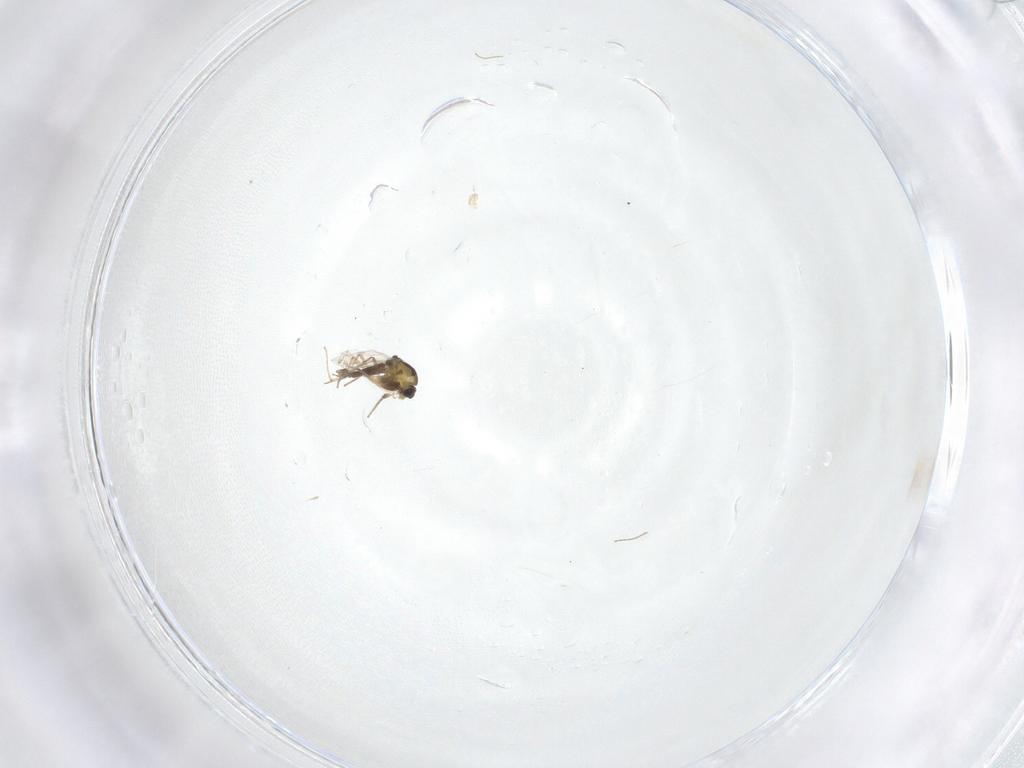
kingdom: Animalia
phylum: Arthropoda
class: Insecta
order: Diptera
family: Chironomidae
